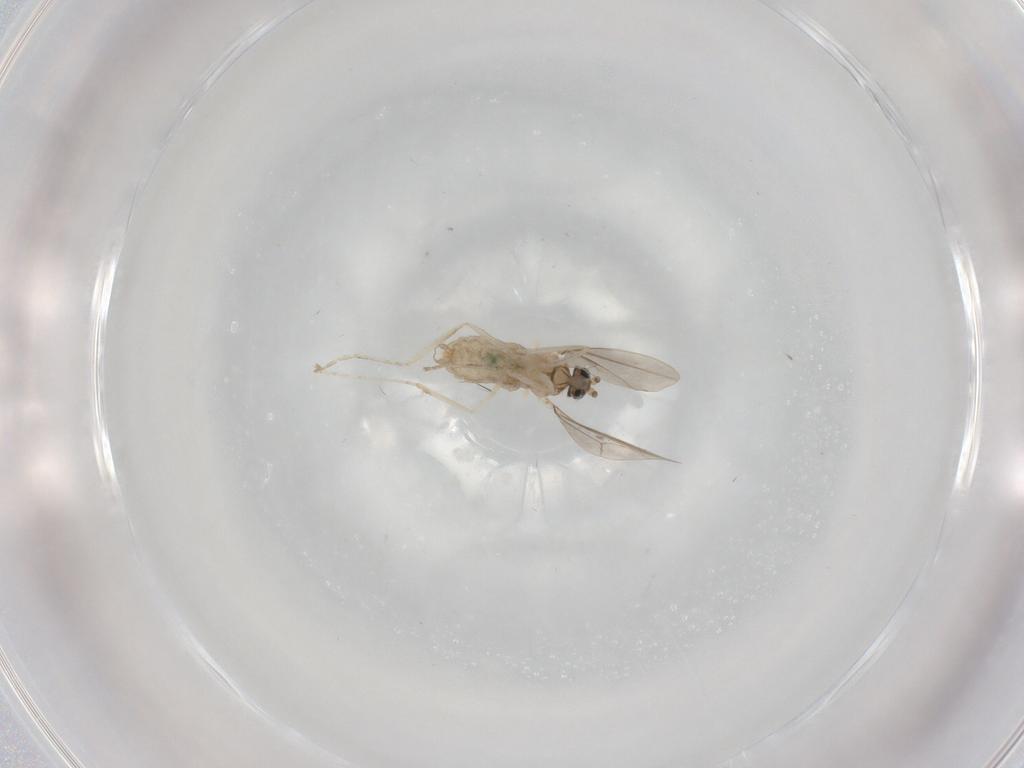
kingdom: Animalia
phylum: Arthropoda
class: Insecta
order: Diptera
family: Cecidomyiidae
